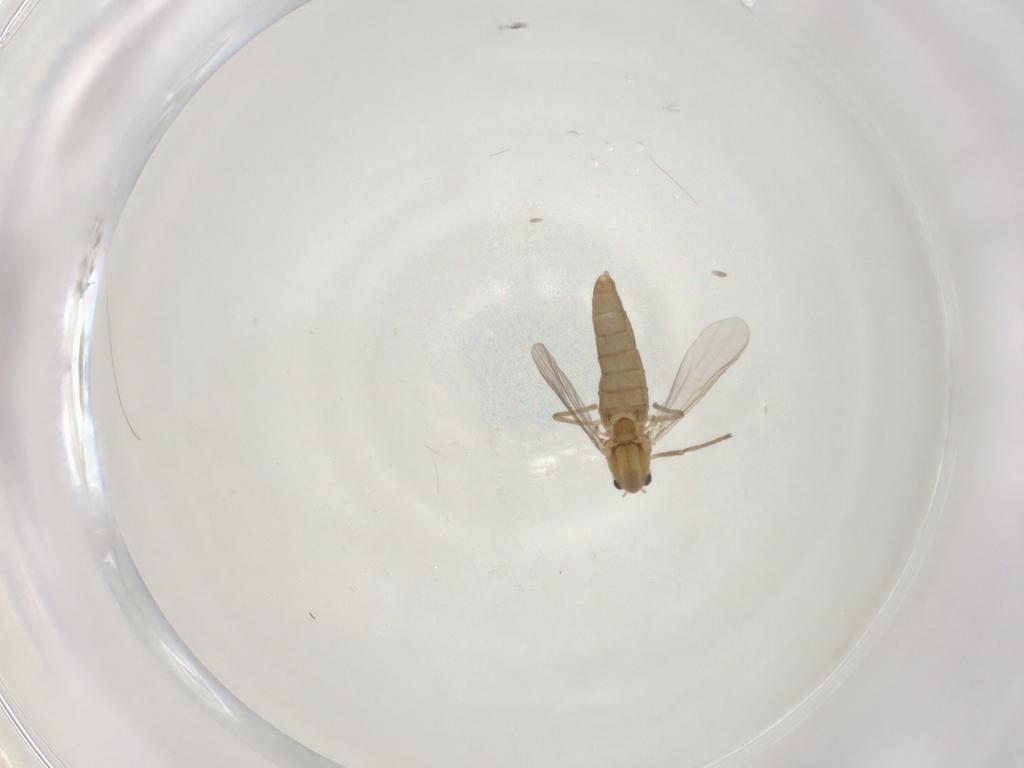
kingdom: Animalia
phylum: Arthropoda
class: Insecta
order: Diptera
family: Chironomidae
